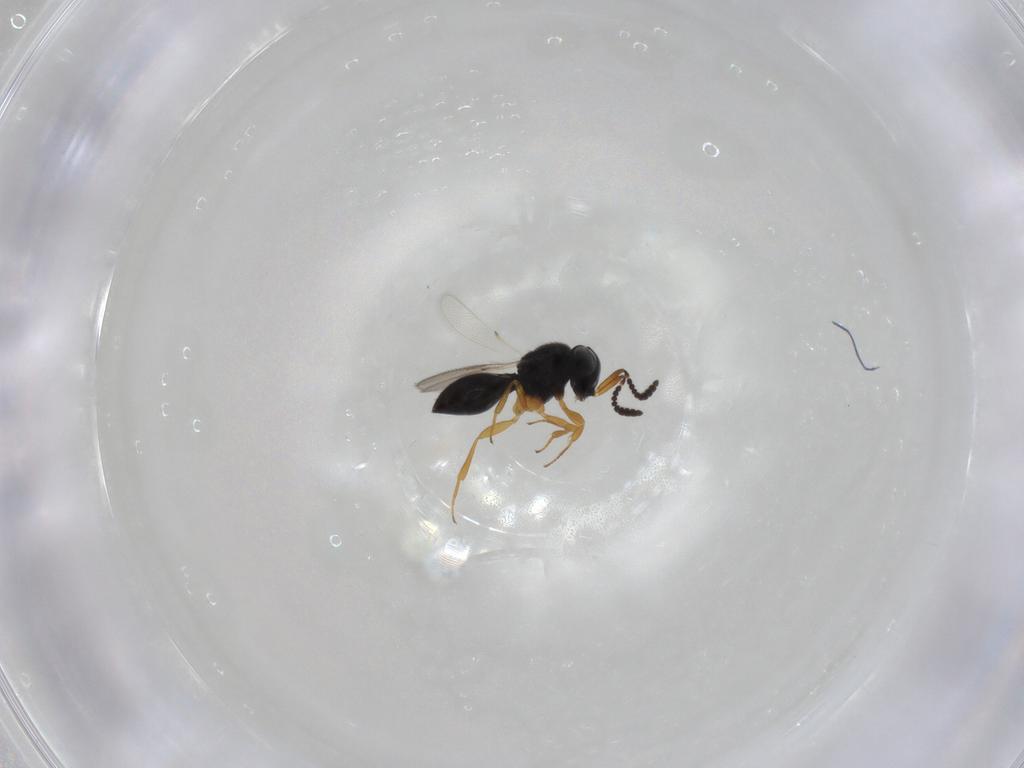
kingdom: Animalia
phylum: Arthropoda
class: Insecta
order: Hymenoptera
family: Scelionidae
